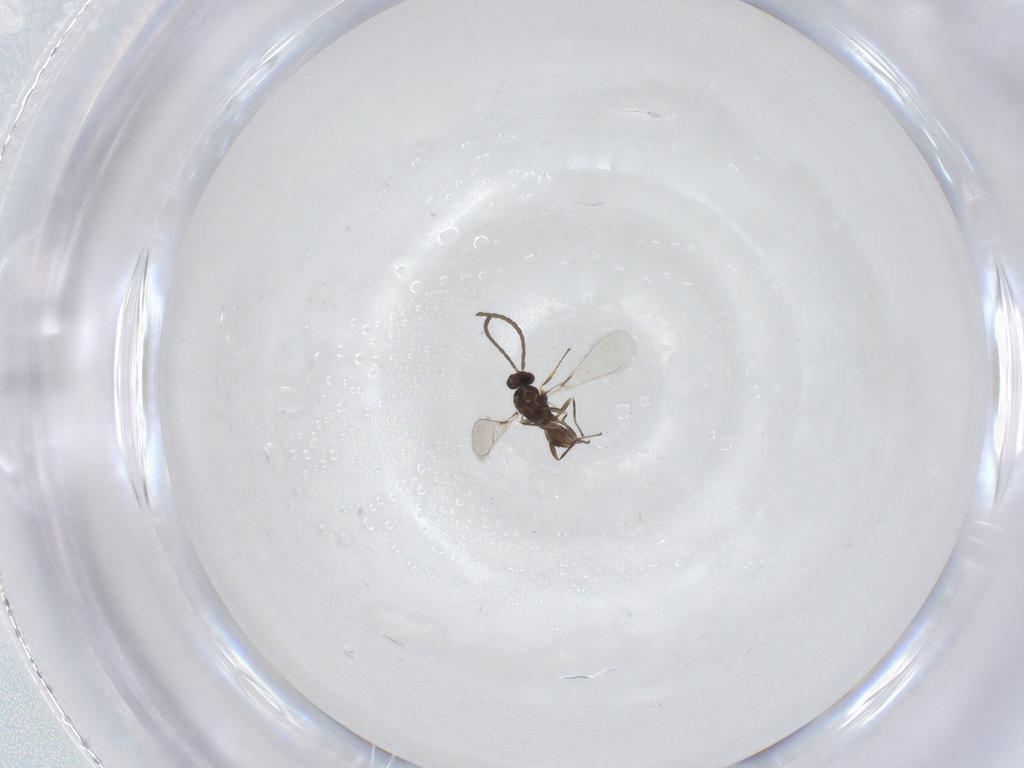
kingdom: Animalia
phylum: Arthropoda
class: Insecta
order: Hymenoptera
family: Mymaridae
